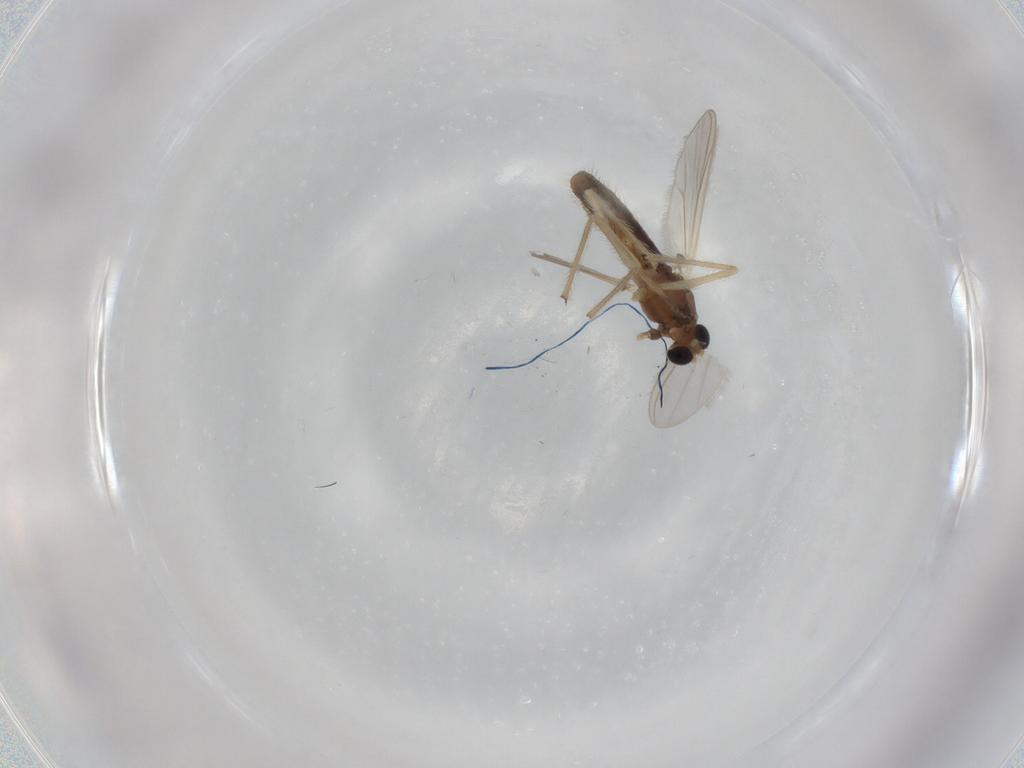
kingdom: Animalia
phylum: Arthropoda
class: Insecta
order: Diptera
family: Chironomidae
